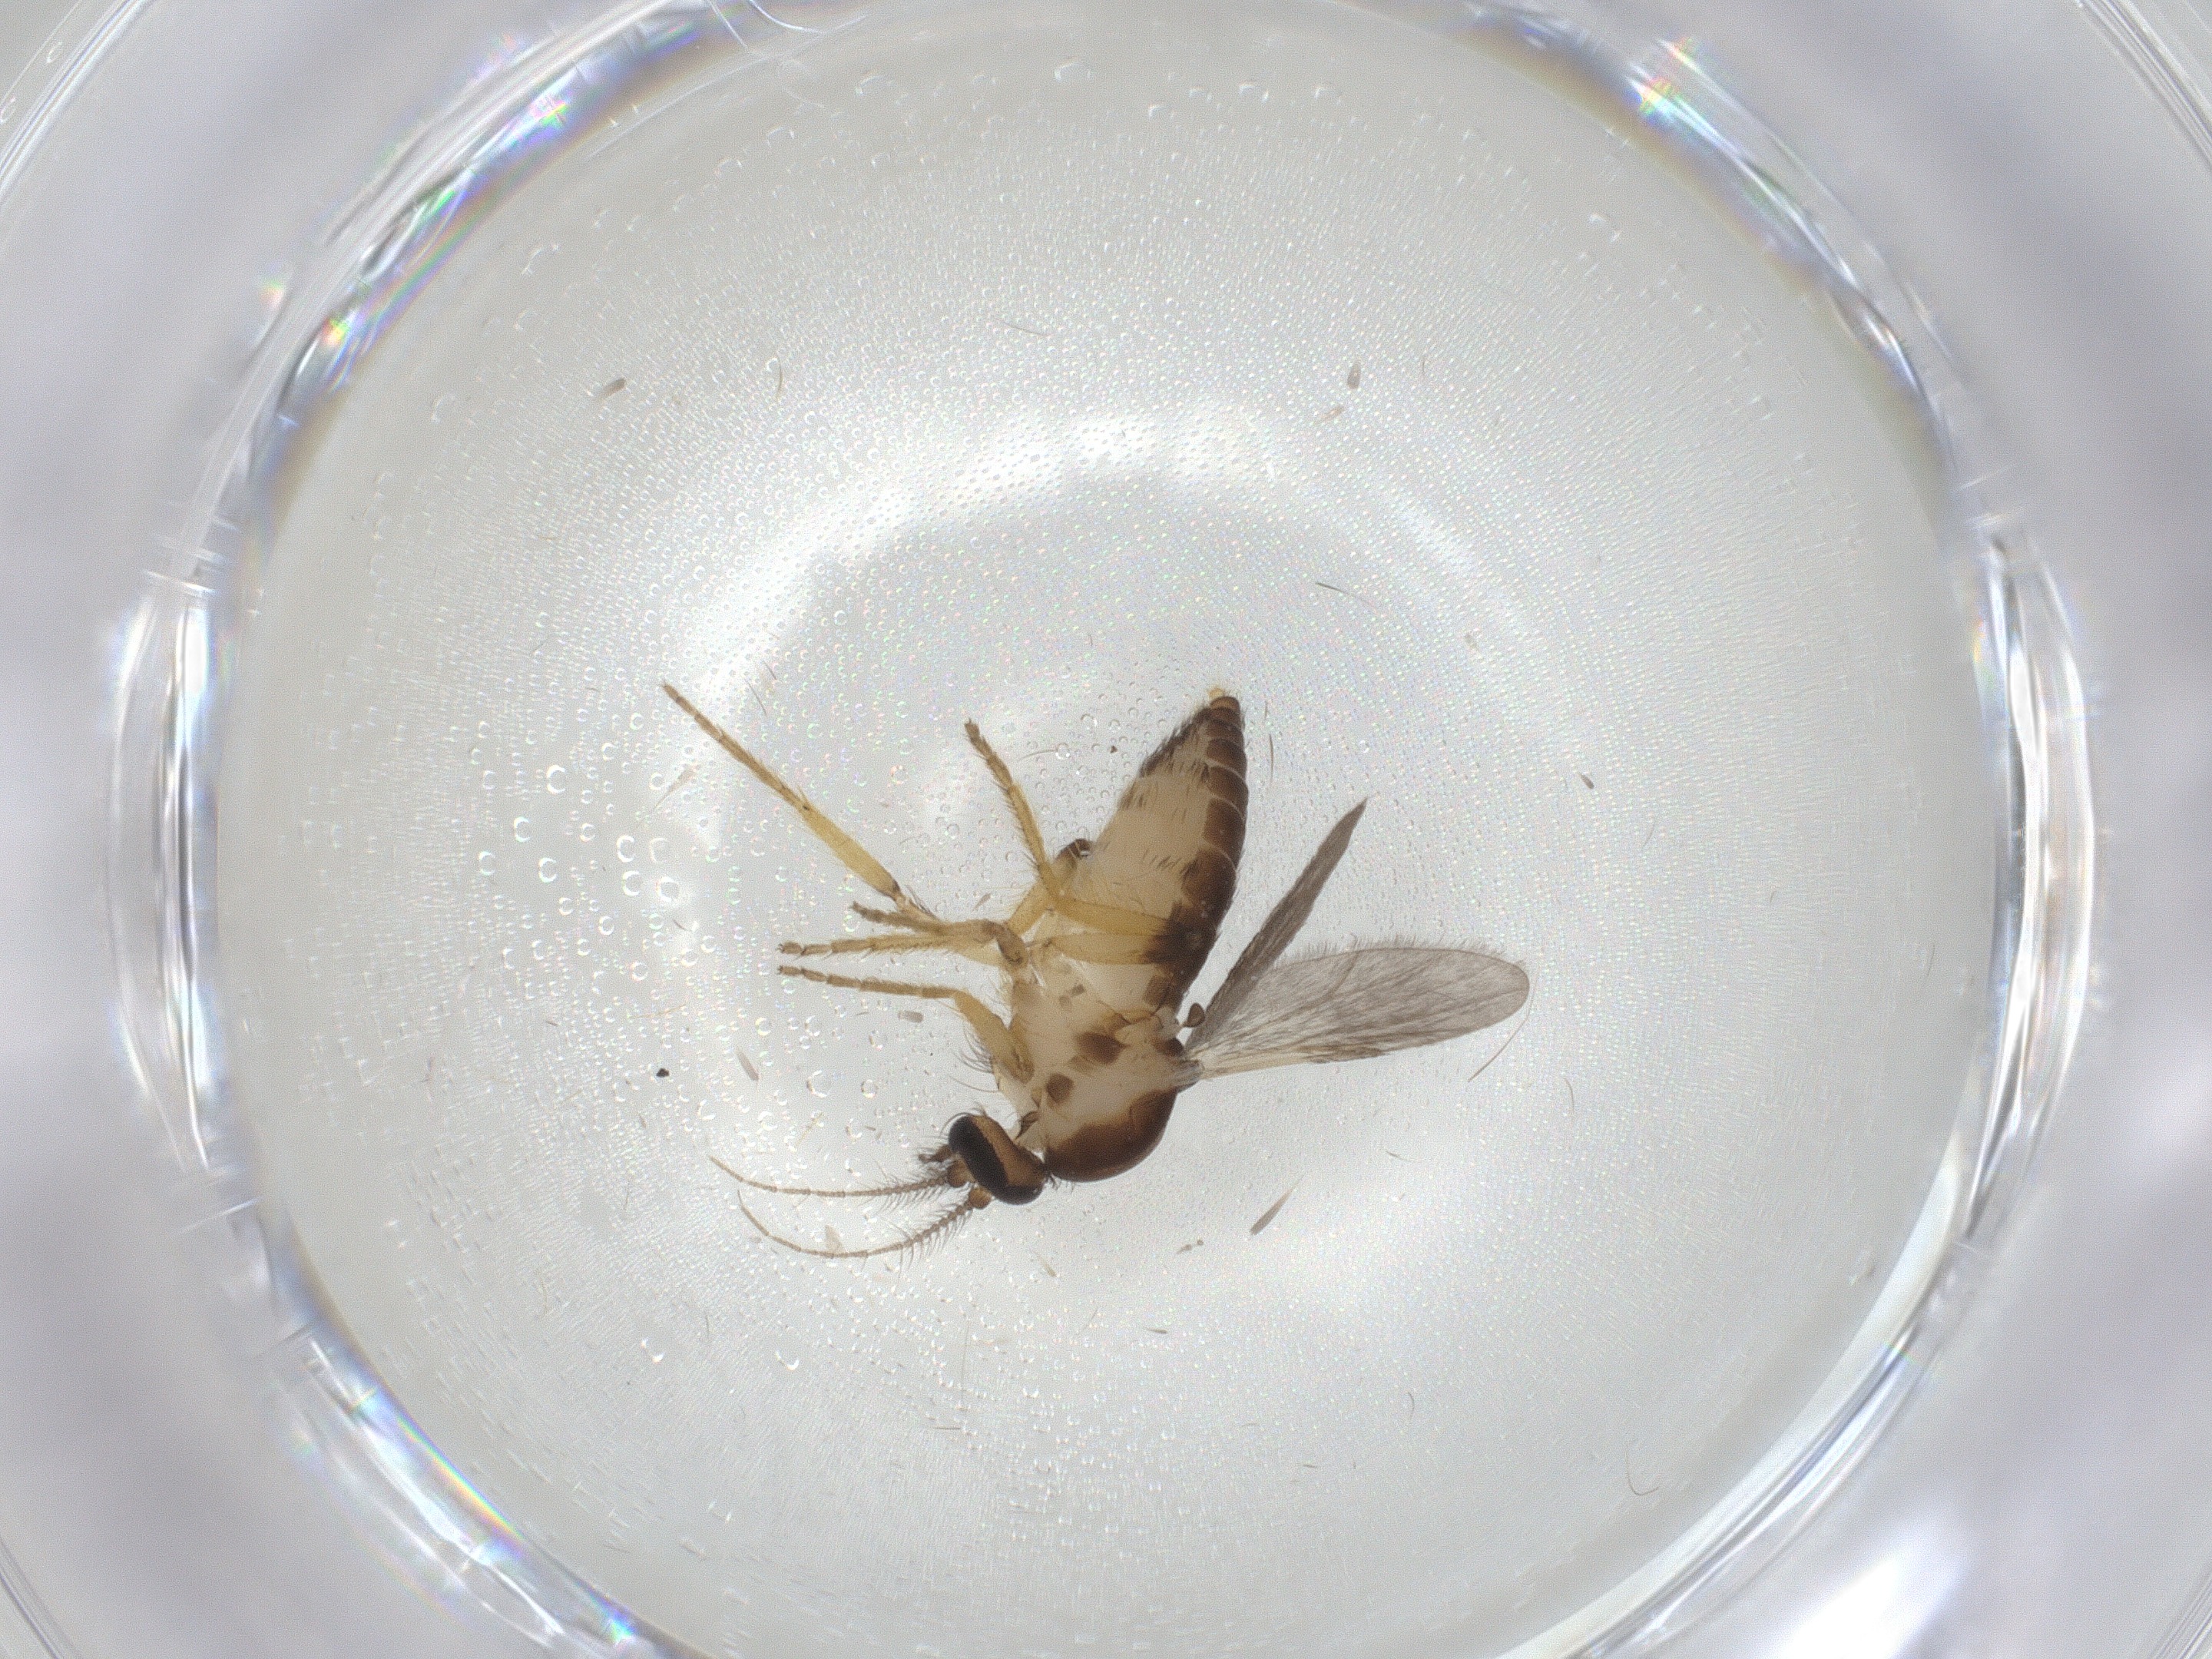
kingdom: Animalia
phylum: Arthropoda
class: Insecta
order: Diptera
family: Ceratopogonidae
